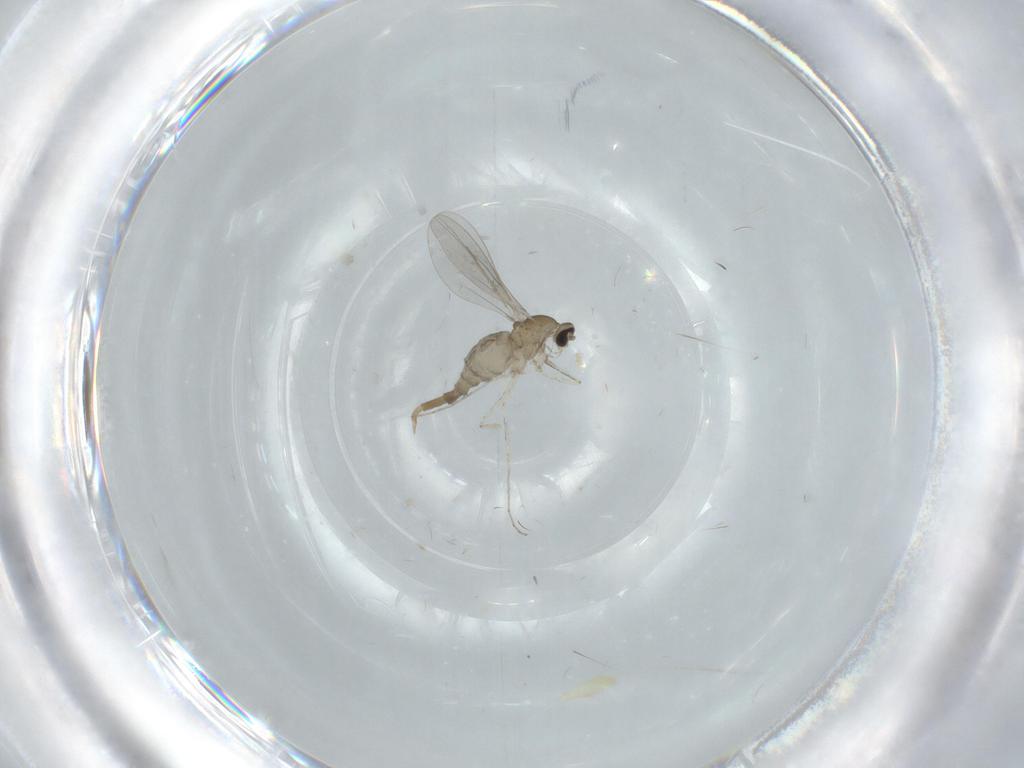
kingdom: Animalia
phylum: Arthropoda
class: Insecta
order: Diptera
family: Cecidomyiidae
